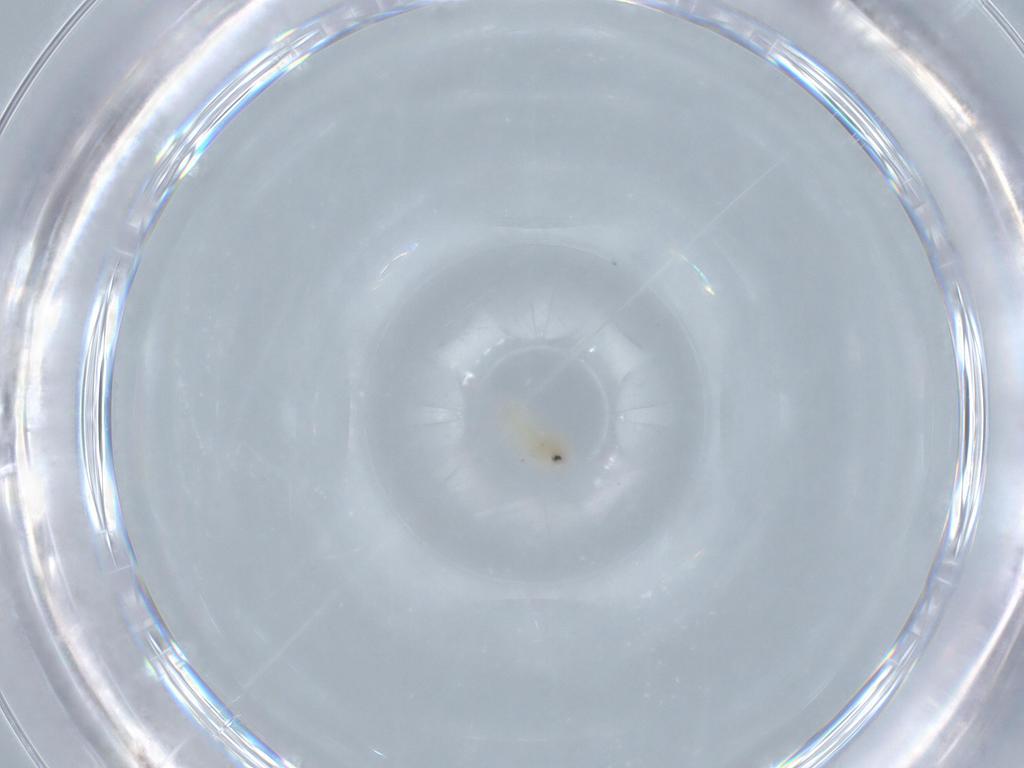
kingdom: Animalia
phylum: Arthropoda
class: Insecta
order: Hemiptera
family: Aleyrodidae
